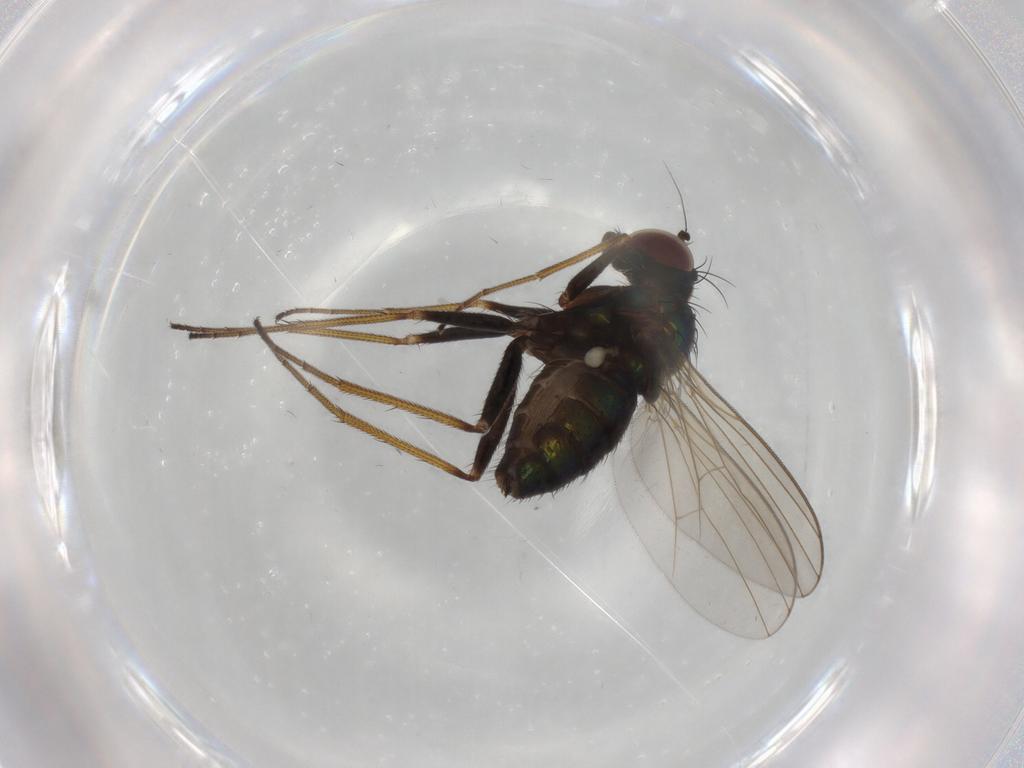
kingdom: Animalia
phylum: Arthropoda
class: Insecta
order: Diptera
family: Dolichopodidae
